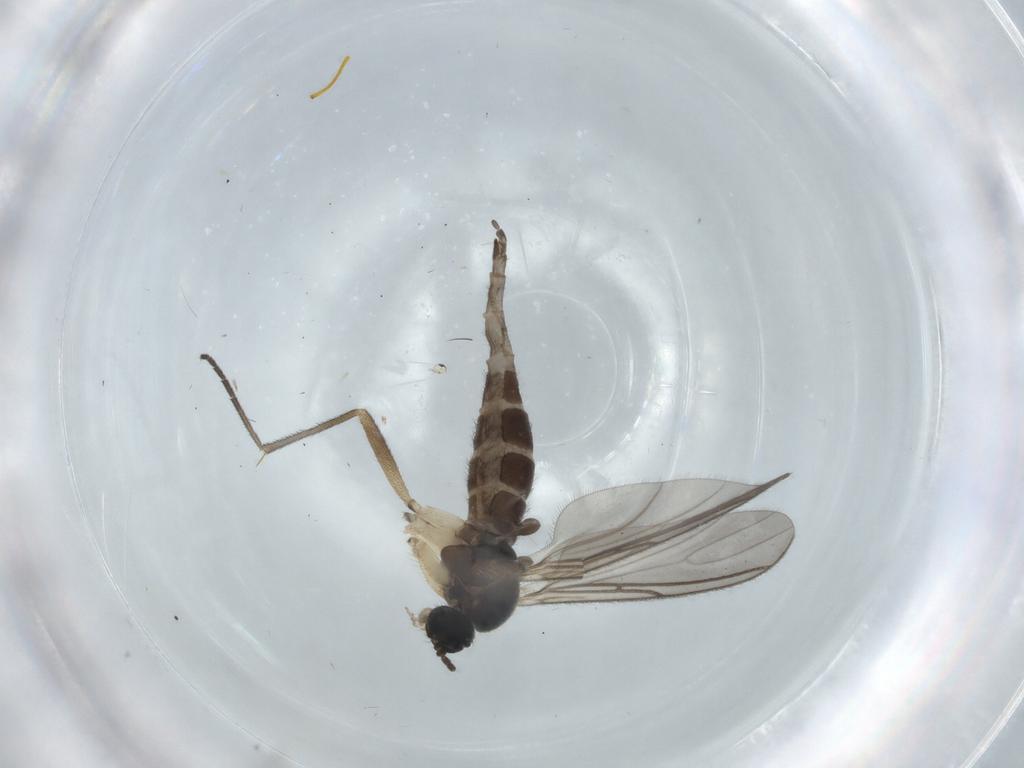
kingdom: Animalia
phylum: Arthropoda
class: Insecta
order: Diptera
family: Sciaridae
